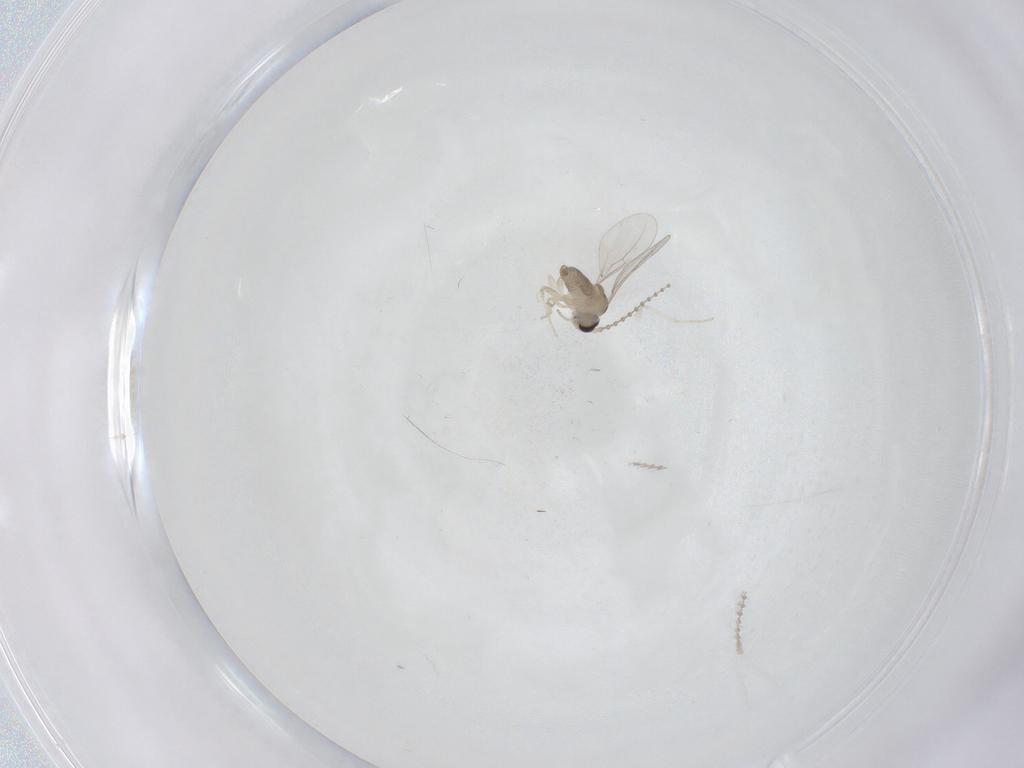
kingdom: Animalia
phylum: Arthropoda
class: Insecta
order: Diptera
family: Cecidomyiidae
